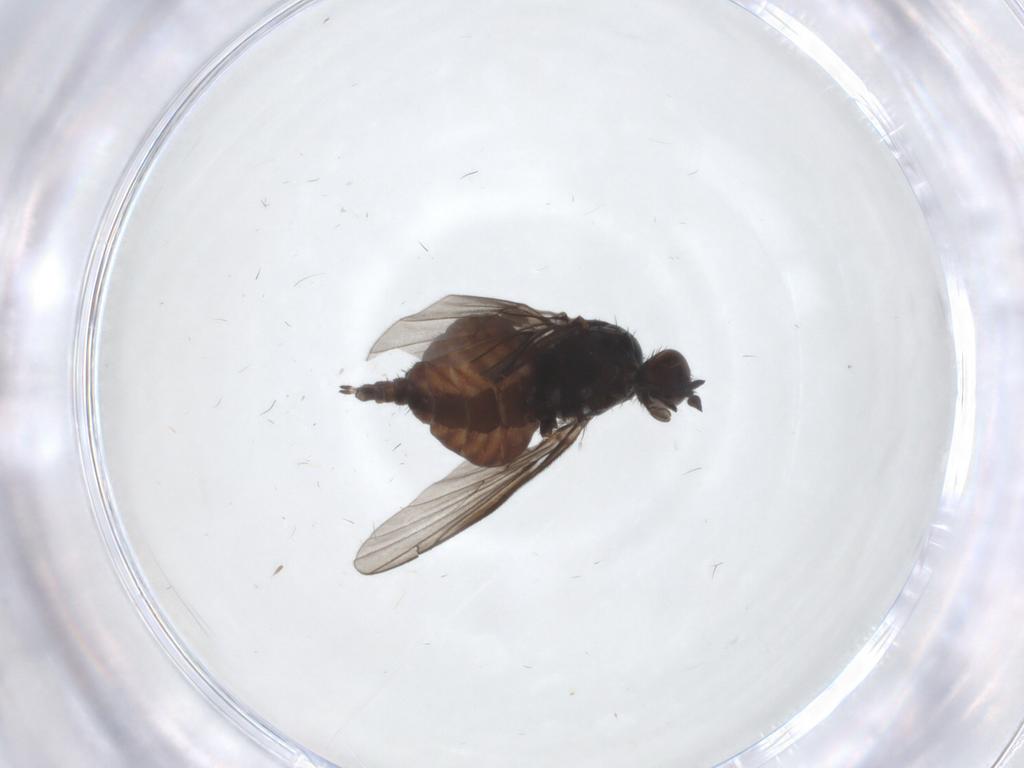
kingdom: Animalia
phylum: Arthropoda
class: Insecta
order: Diptera
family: Empididae
